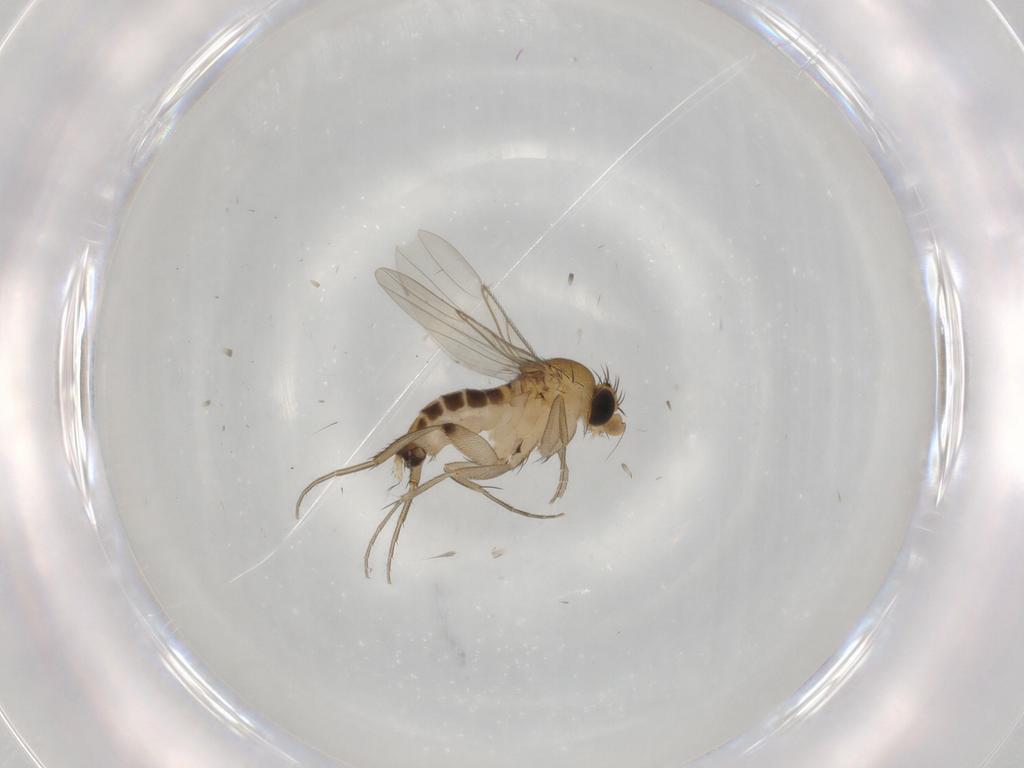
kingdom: Animalia
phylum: Arthropoda
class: Insecta
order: Diptera
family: Phoridae
